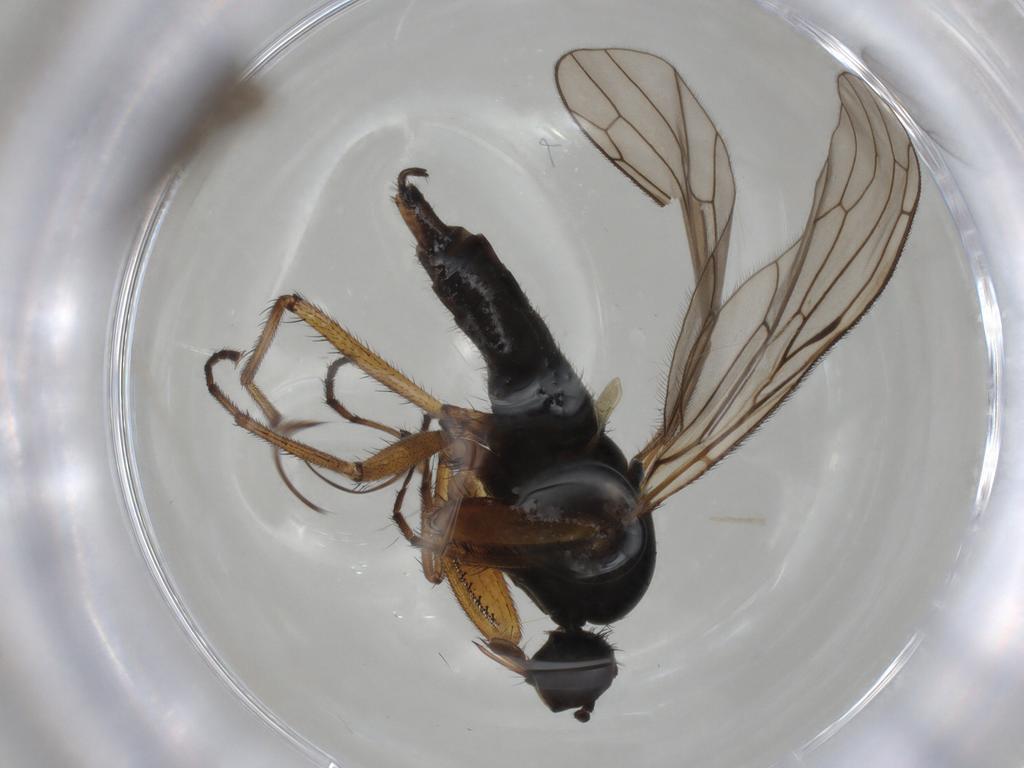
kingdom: Animalia
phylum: Arthropoda
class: Insecta
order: Diptera
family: Empididae
